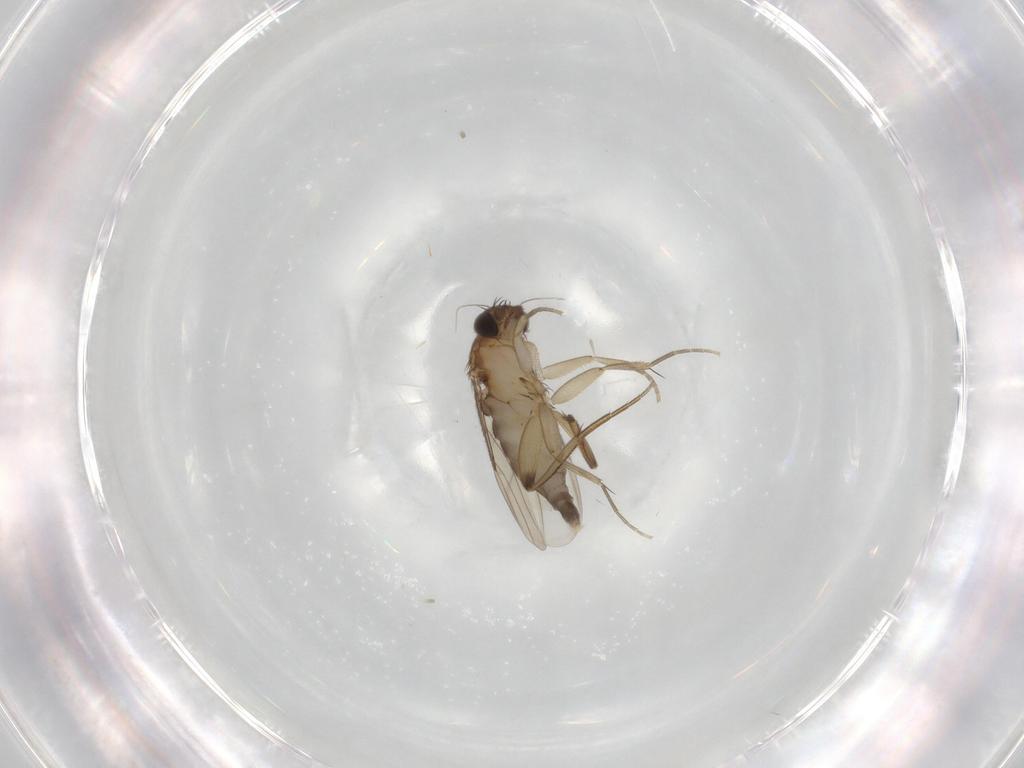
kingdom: Animalia
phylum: Arthropoda
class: Insecta
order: Diptera
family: Phoridae
